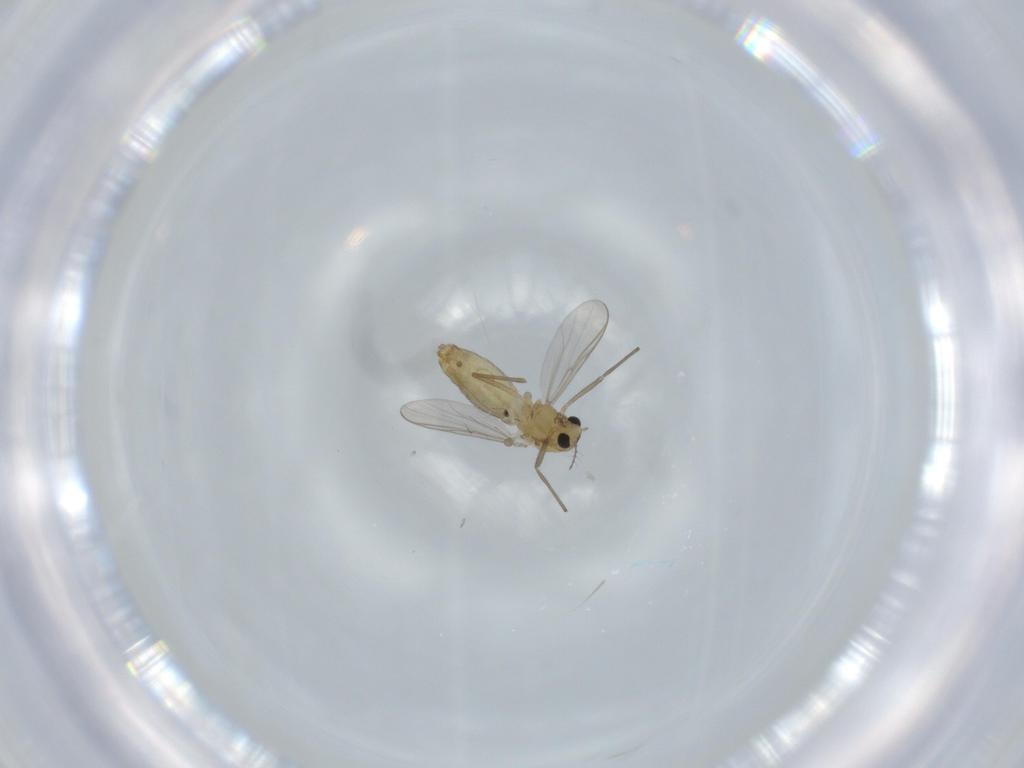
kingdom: Animalia
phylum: Arthropoda
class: Insecta
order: Diptera
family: Chironomidae
